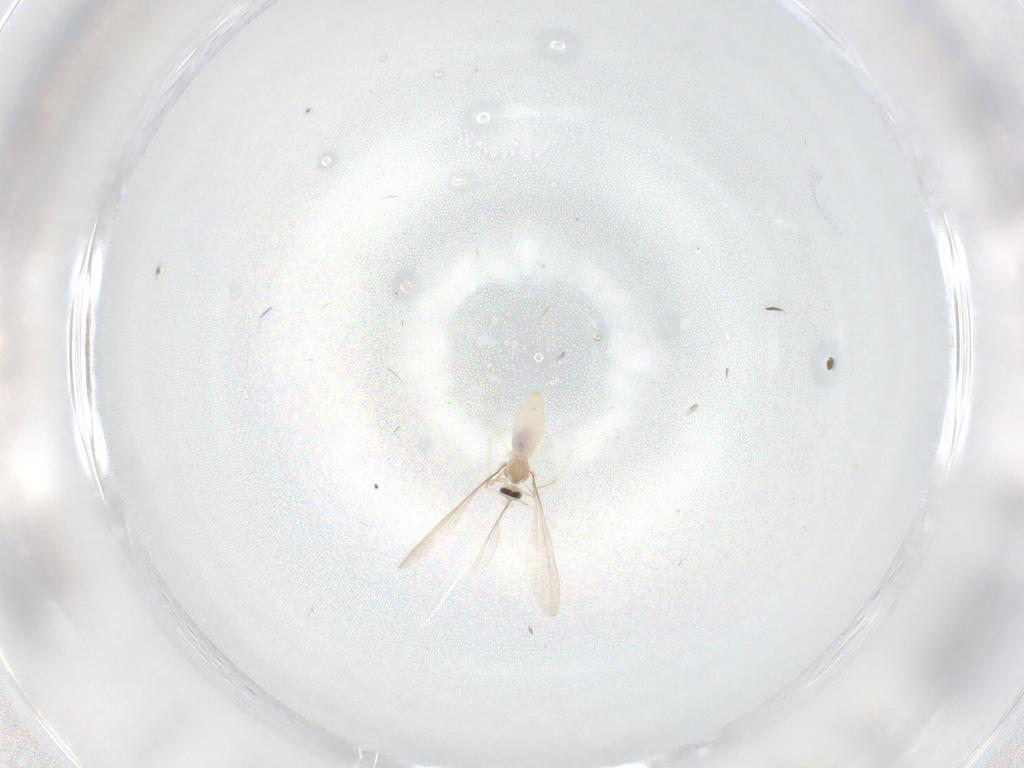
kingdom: Animalia
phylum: Arthropoda
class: Insecta
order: Diptera
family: Cecidomyiidae
